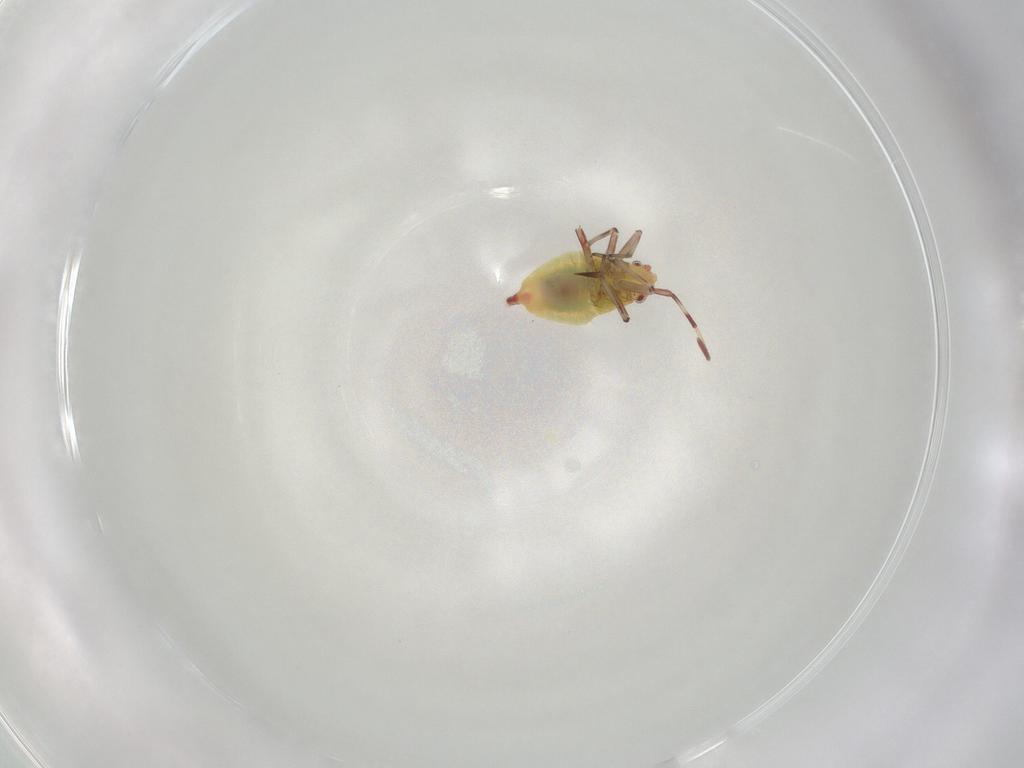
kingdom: Animalia
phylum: Arthropoda
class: Insecta
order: Hemiptera
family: Miridae
